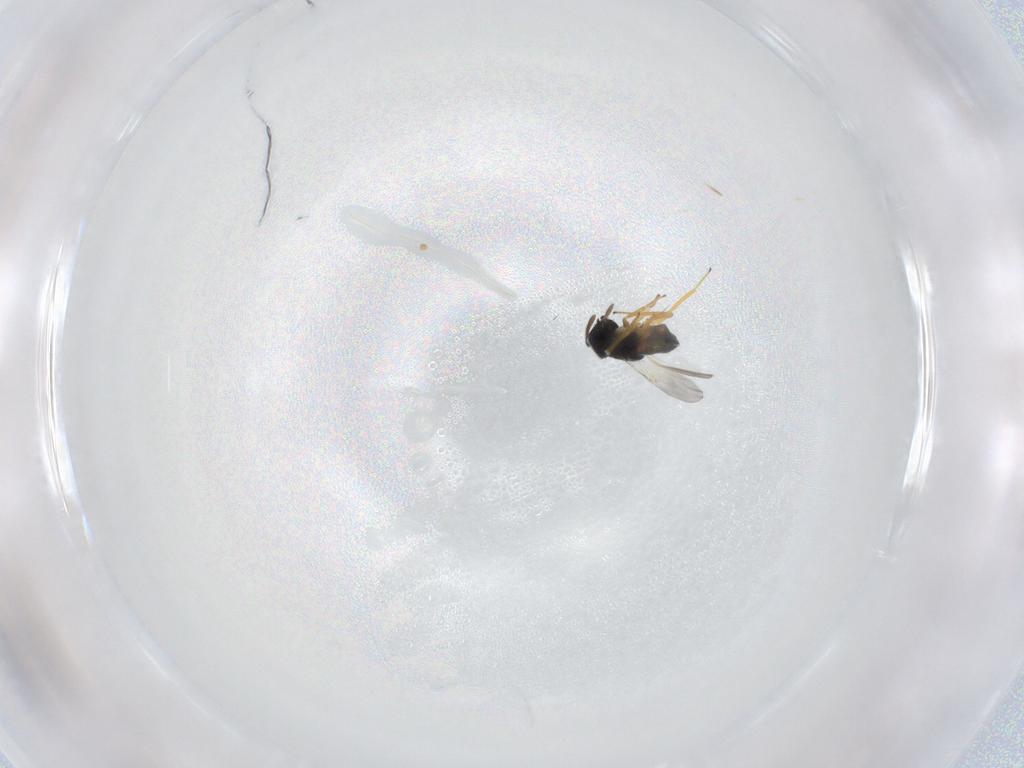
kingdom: Animalia
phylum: Arthropoda
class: Insecta
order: Hymenoptera
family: Encyrtidae
